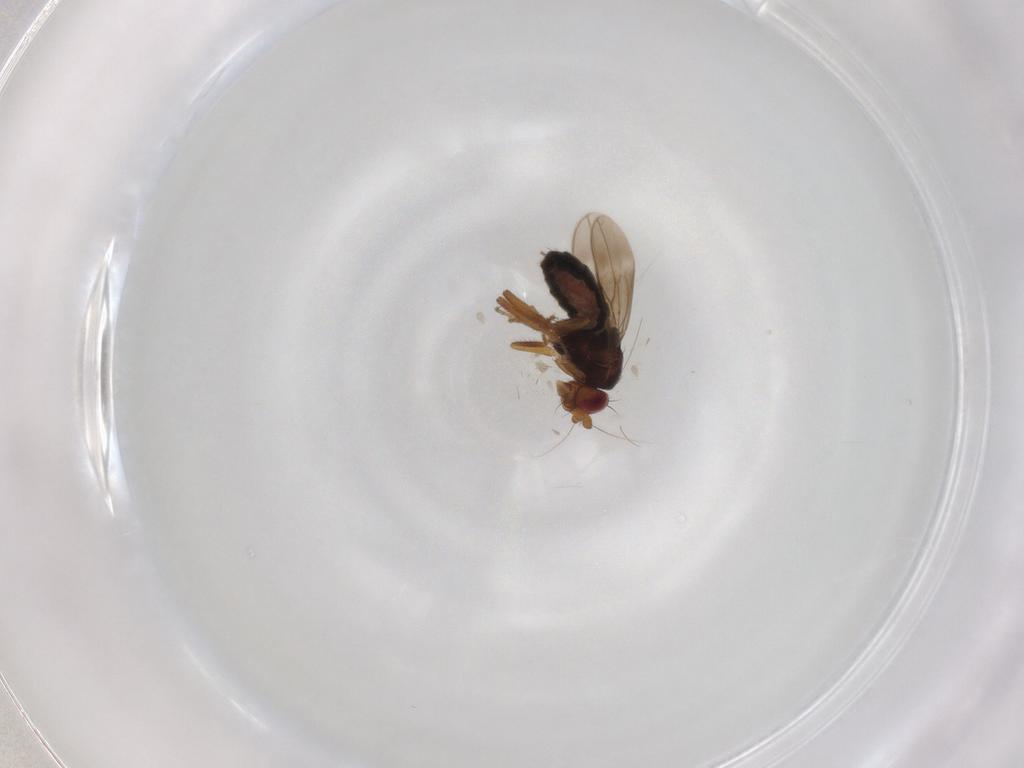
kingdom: Animalia
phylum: Arthropoda
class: Insecta
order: Diptera
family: Sphaeroceridae
